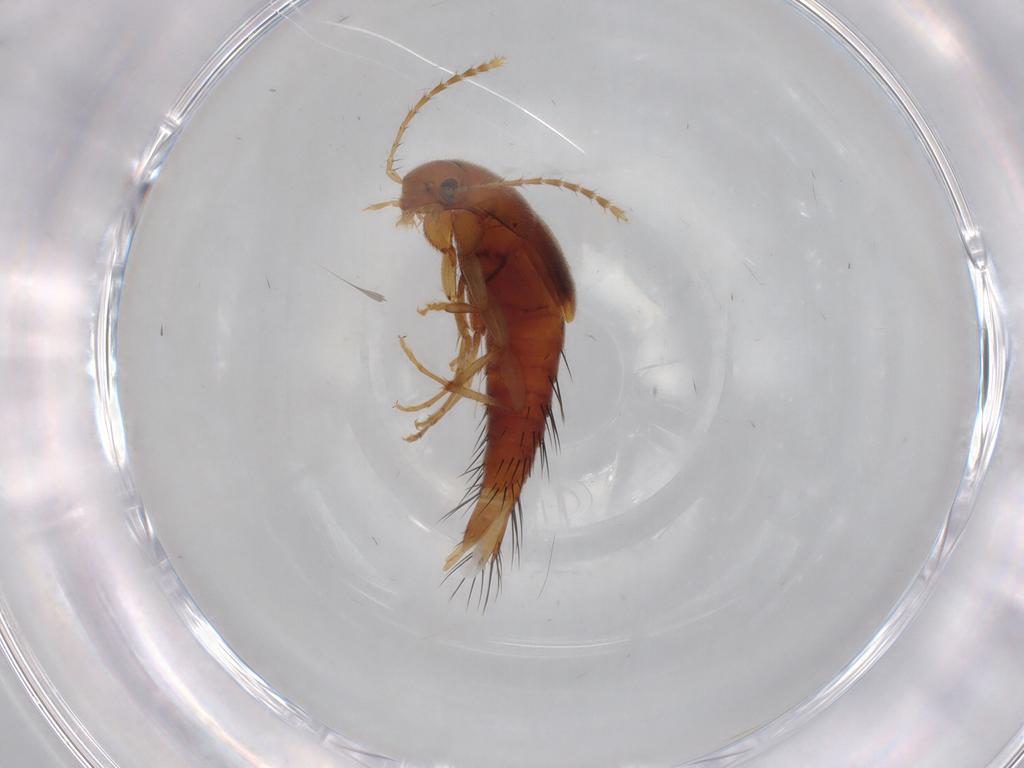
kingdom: Animalia
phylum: Arthropoda
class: Insecta
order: Coleoptera
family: Staphylinidae
